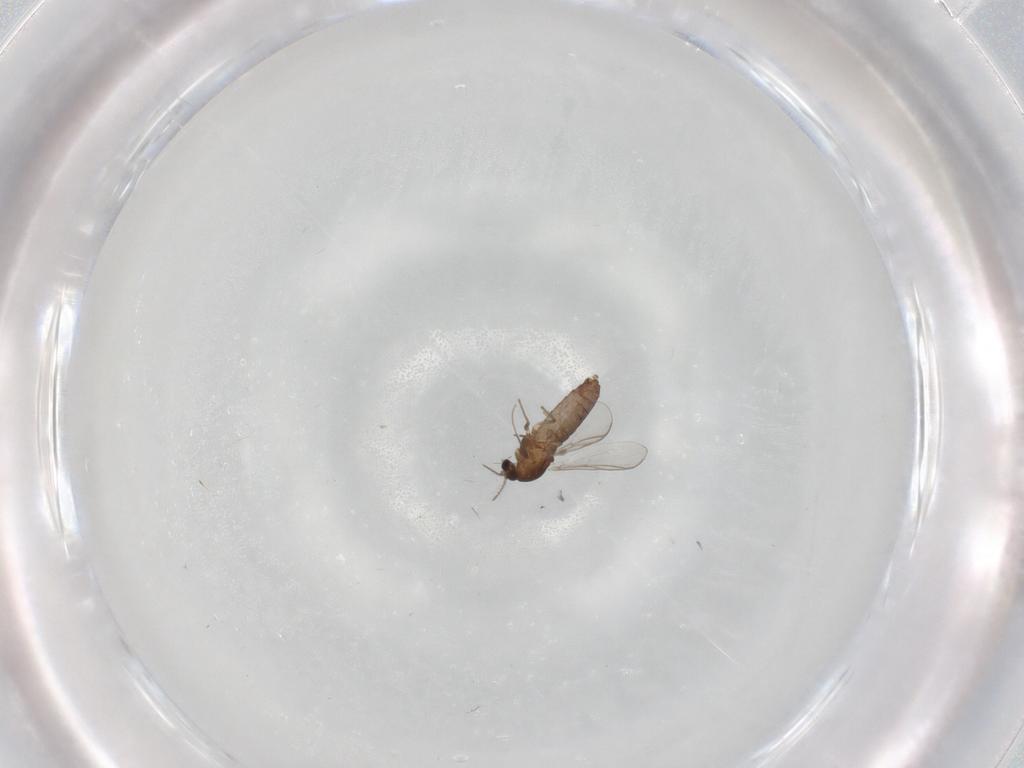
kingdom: Animalia
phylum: Arthropoda
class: Insecta
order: Diptera
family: Chironomidae
